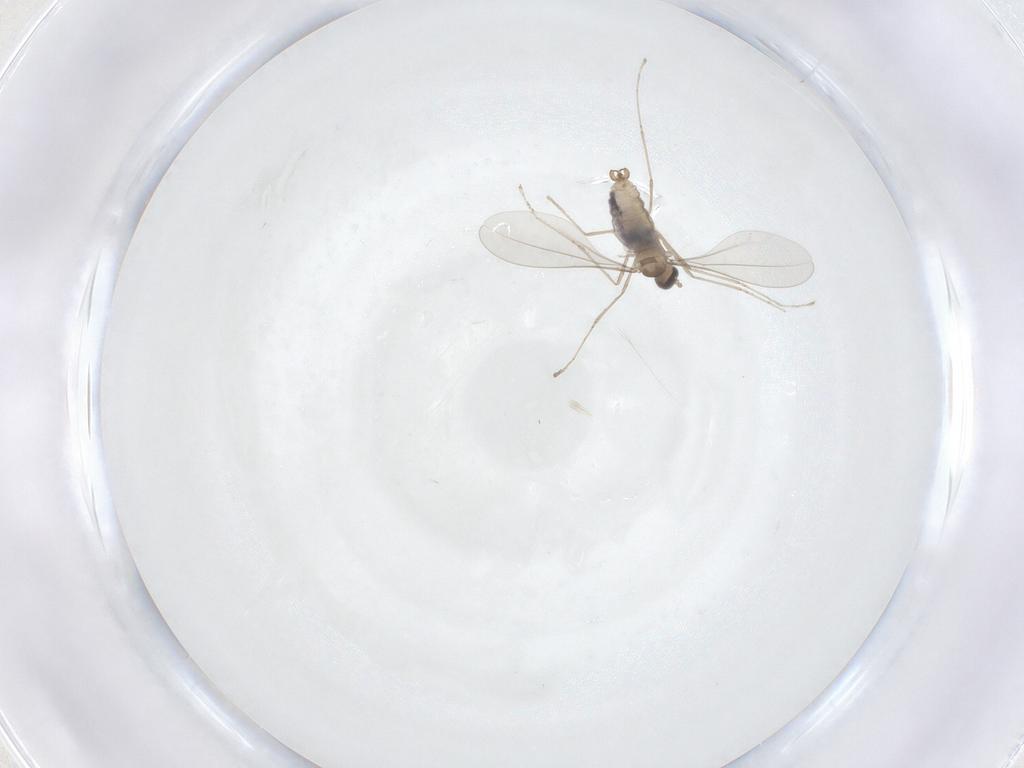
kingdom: Animalia
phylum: Arthropoda
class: Insecta
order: Diptera
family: Cecidomyiidae
